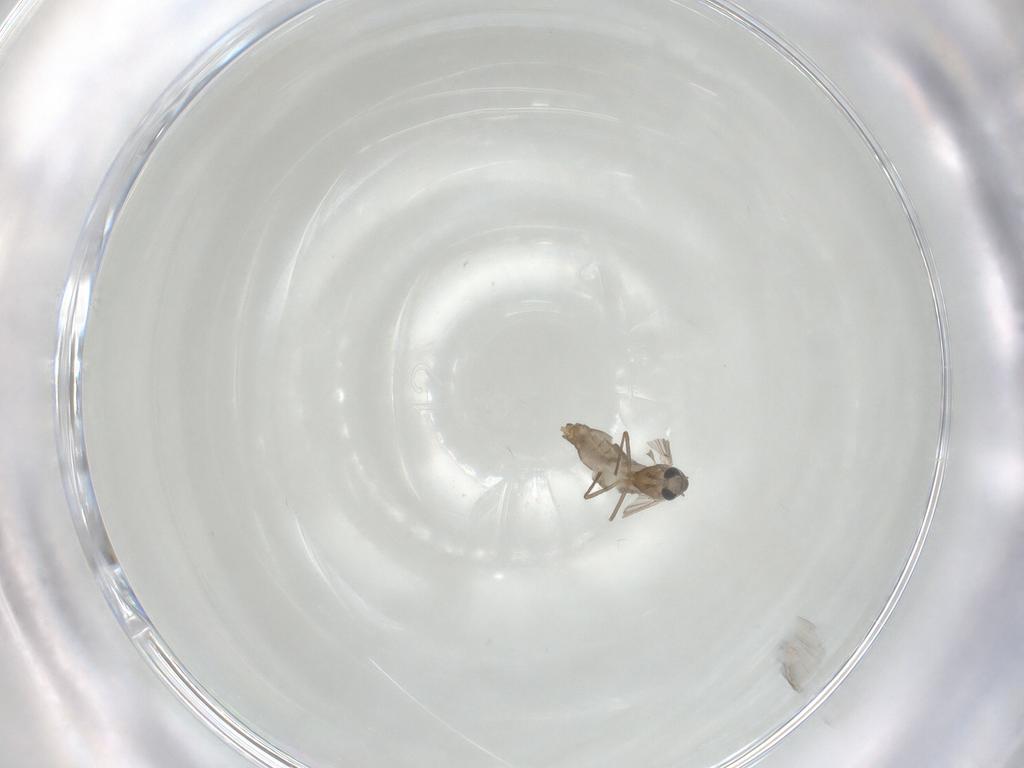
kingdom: Animalia
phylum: Arthropoda
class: Insecta
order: Diptera
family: Chironomidae
